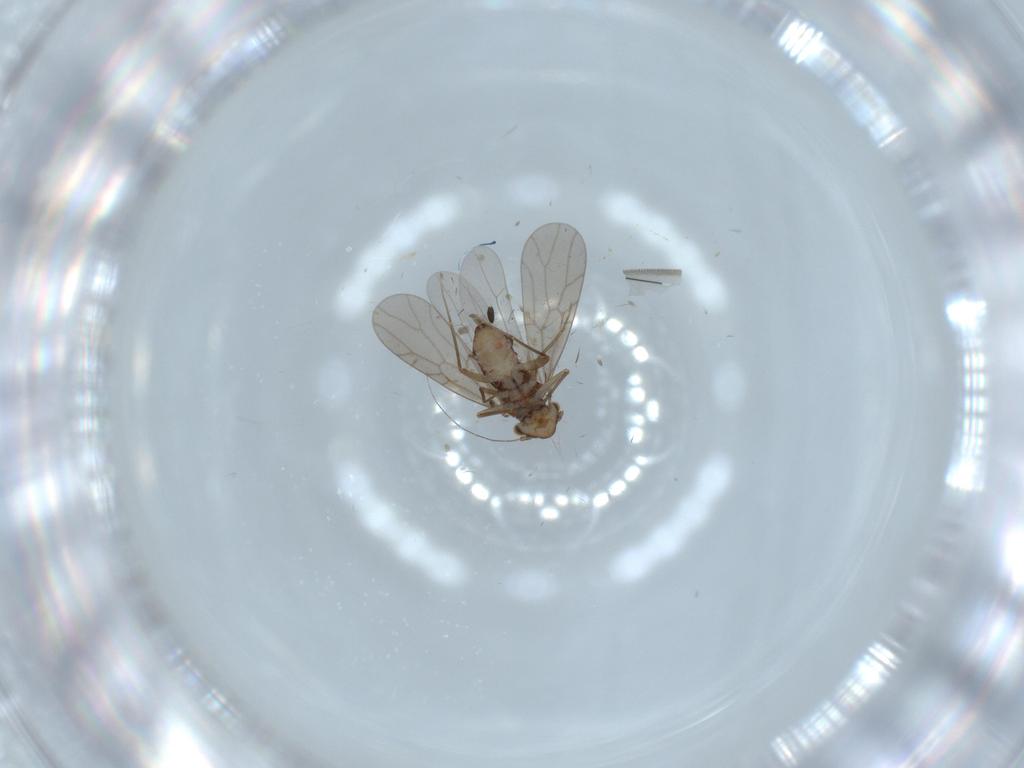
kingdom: Animalia
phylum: Arthropoda
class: Insecta
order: Psocodea
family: Lepidopsocidae
